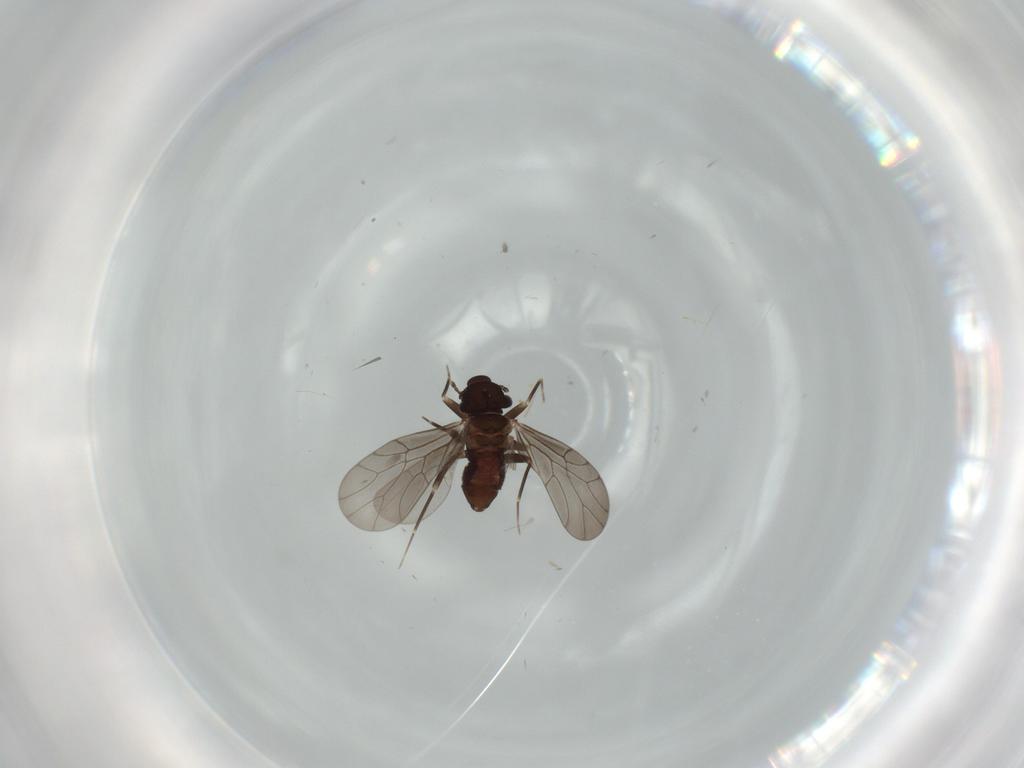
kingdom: Animalia
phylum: Arthropoda
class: Insecta
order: Psocodea
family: Lepidopsocidae
